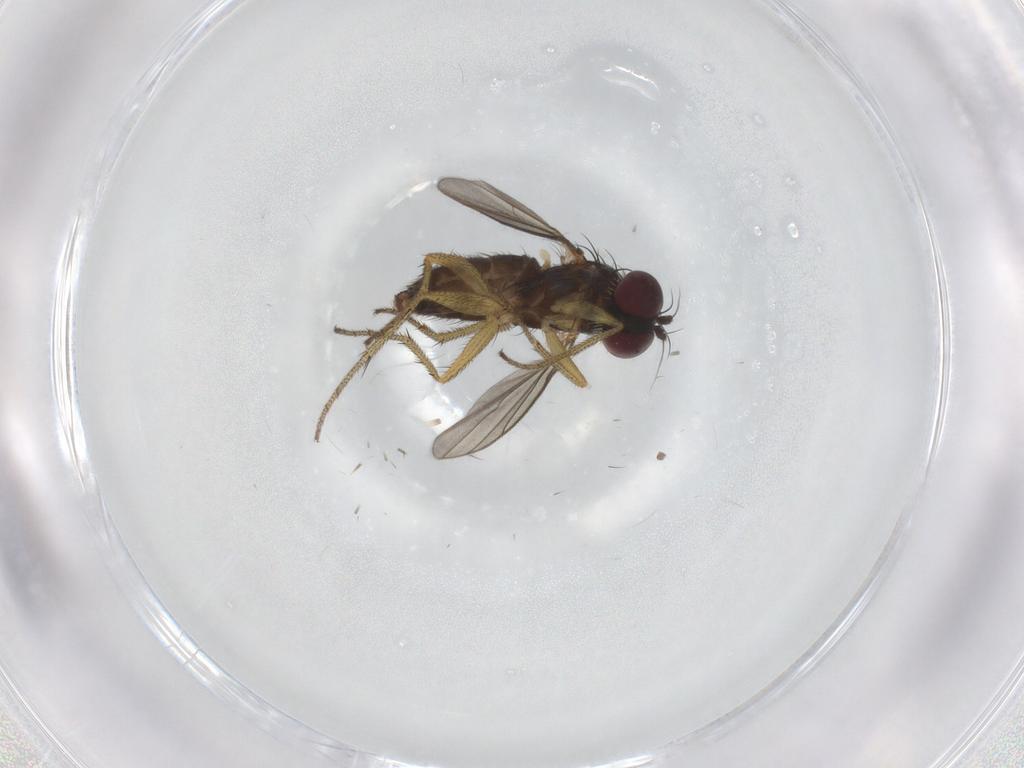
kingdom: Animalia
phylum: Arthropoda
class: Insecta
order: Diptera
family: Dolichopodidae
